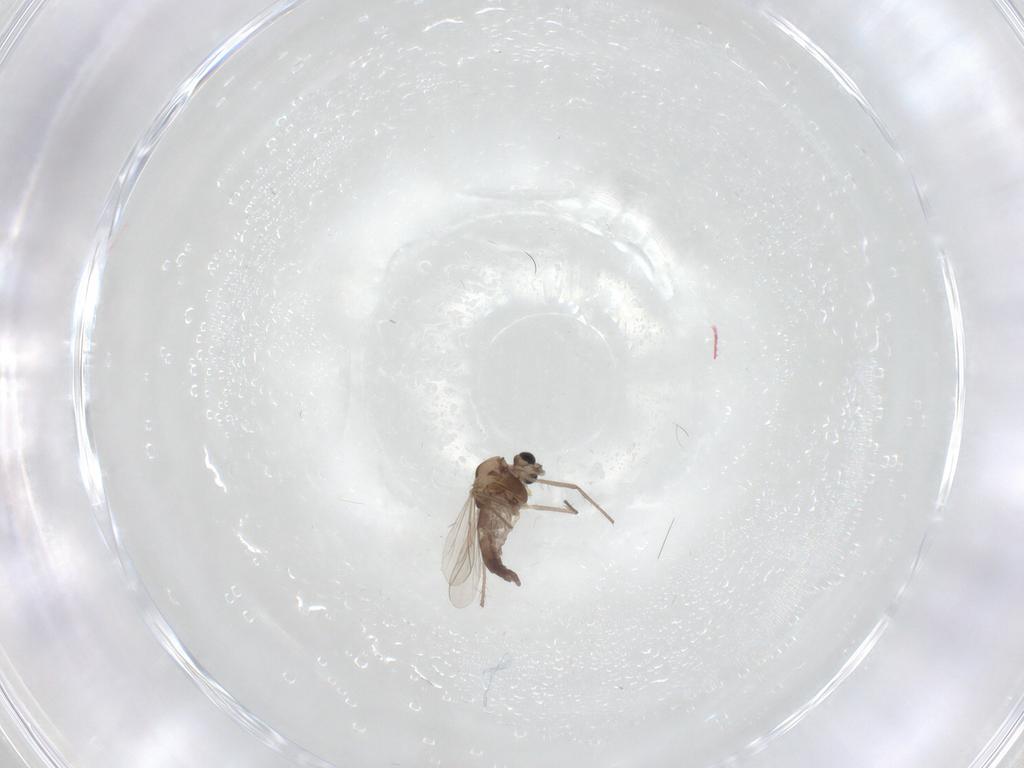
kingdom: Animalia
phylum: Arthropoda
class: Insecta
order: Diptera
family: Chironomidae
